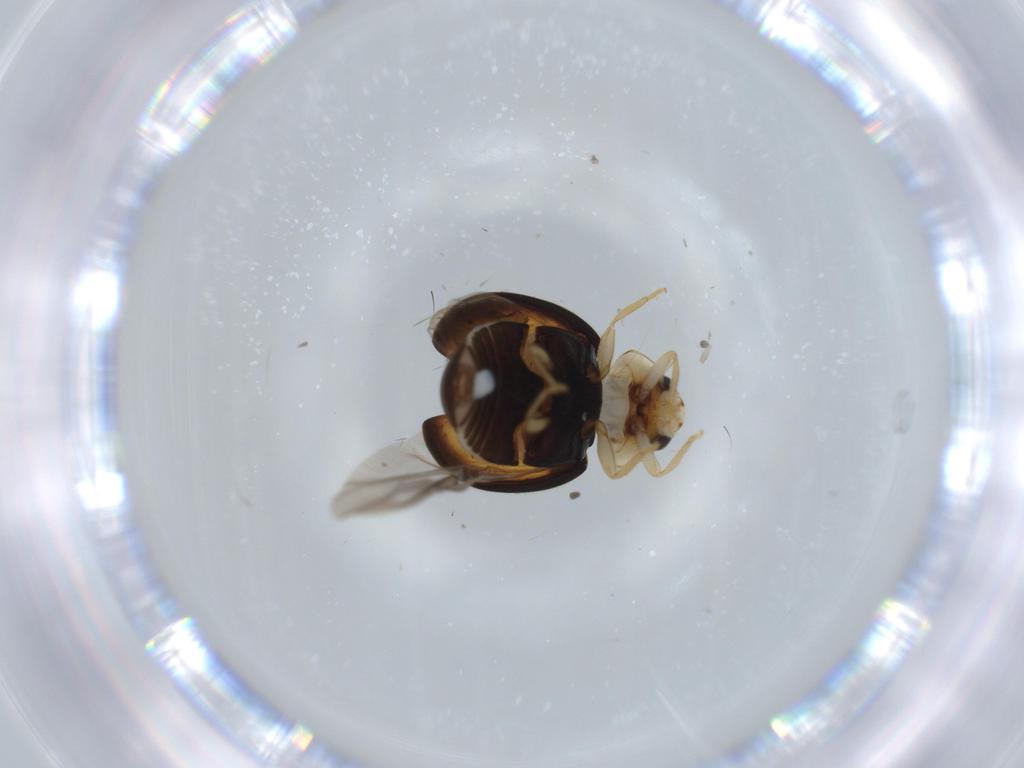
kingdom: Animalia
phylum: Arthropoda
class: Insecta
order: Coleoptera
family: Coccinellidae
